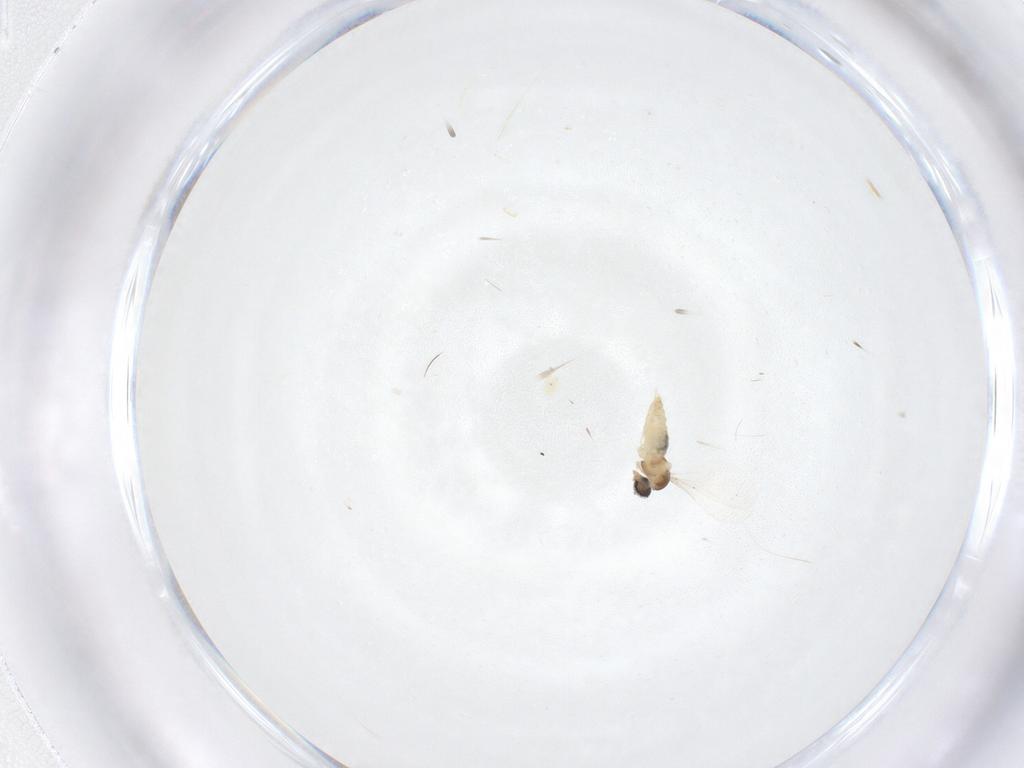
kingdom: Animalia
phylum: Arthropoda
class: Insecta
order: Diptera
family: Cecidomyiidae
